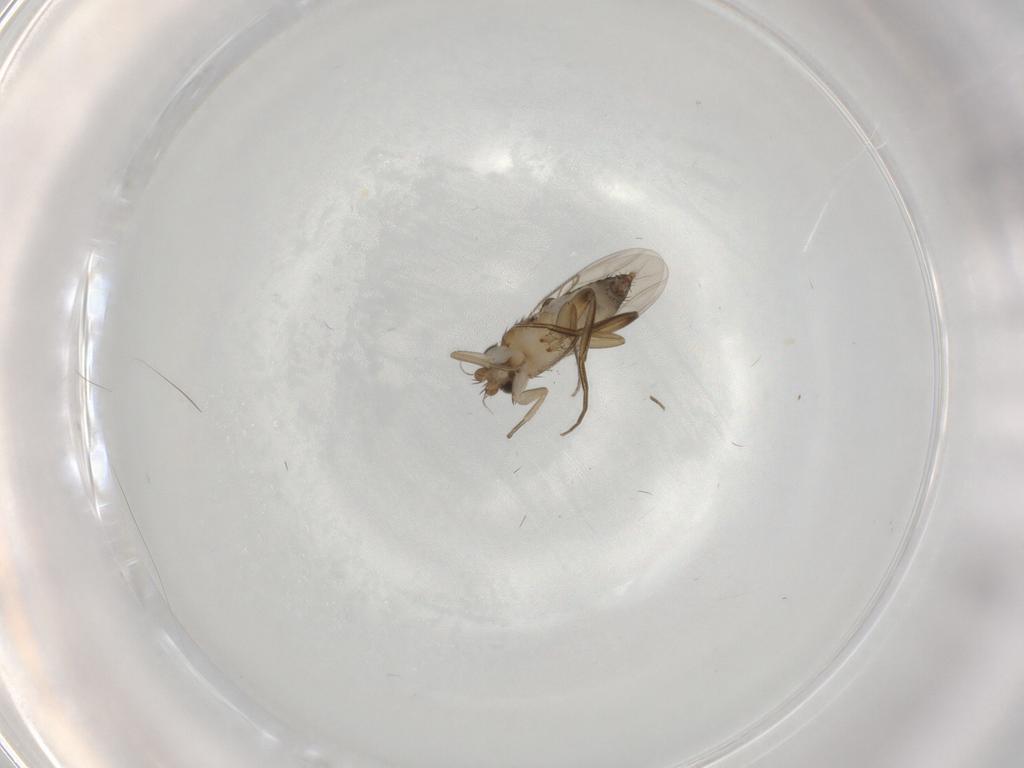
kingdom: Animalia
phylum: Arthropoda
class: Insecta
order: Diptera
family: Phoridae
